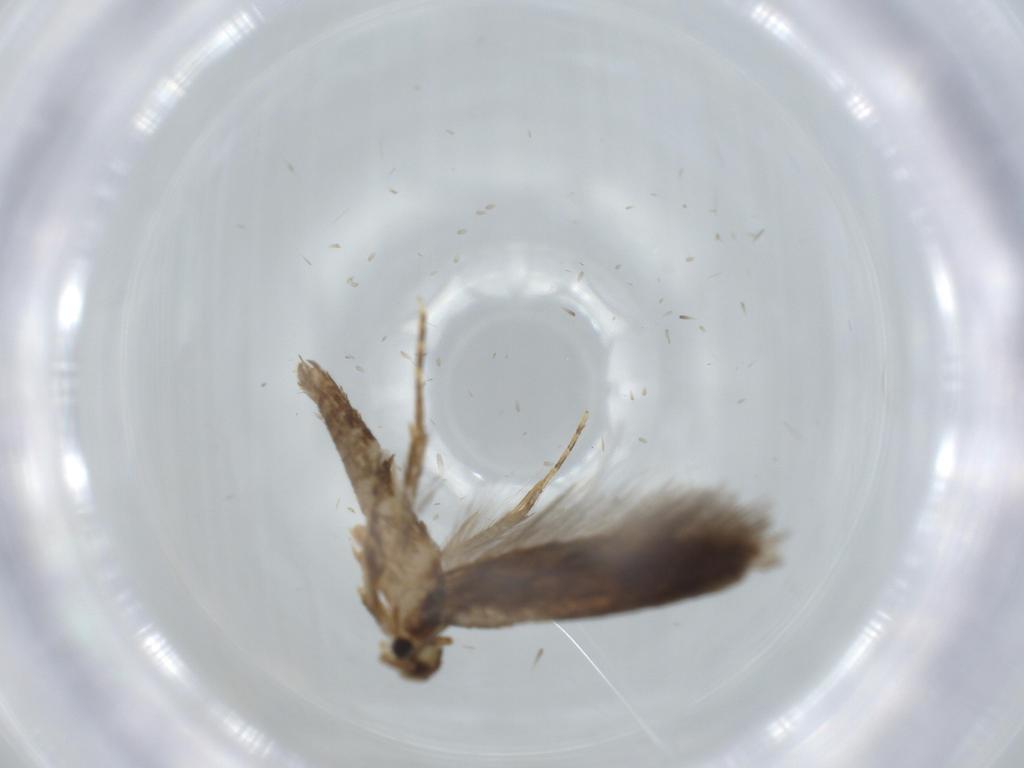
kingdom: Animalia
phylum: Arthropoda
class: Insecta
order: Lepidoptera
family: Tineidae
